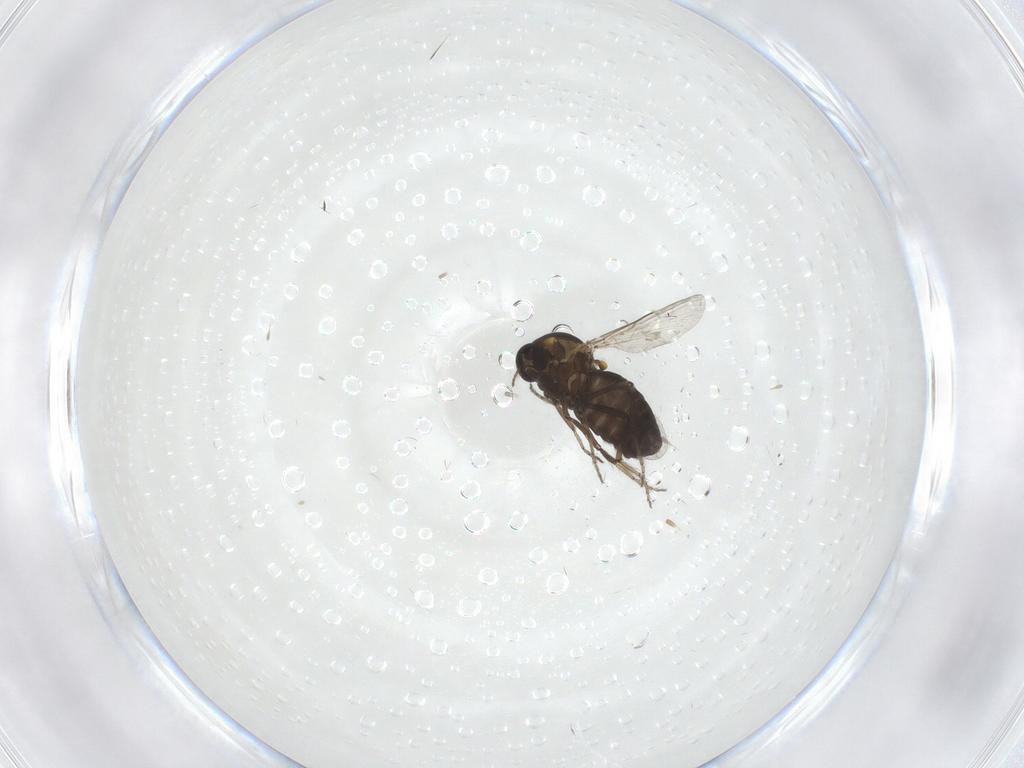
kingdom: Animalia
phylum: Arthropoda
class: Insecta
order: Diptera
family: Ceratopogonidae
